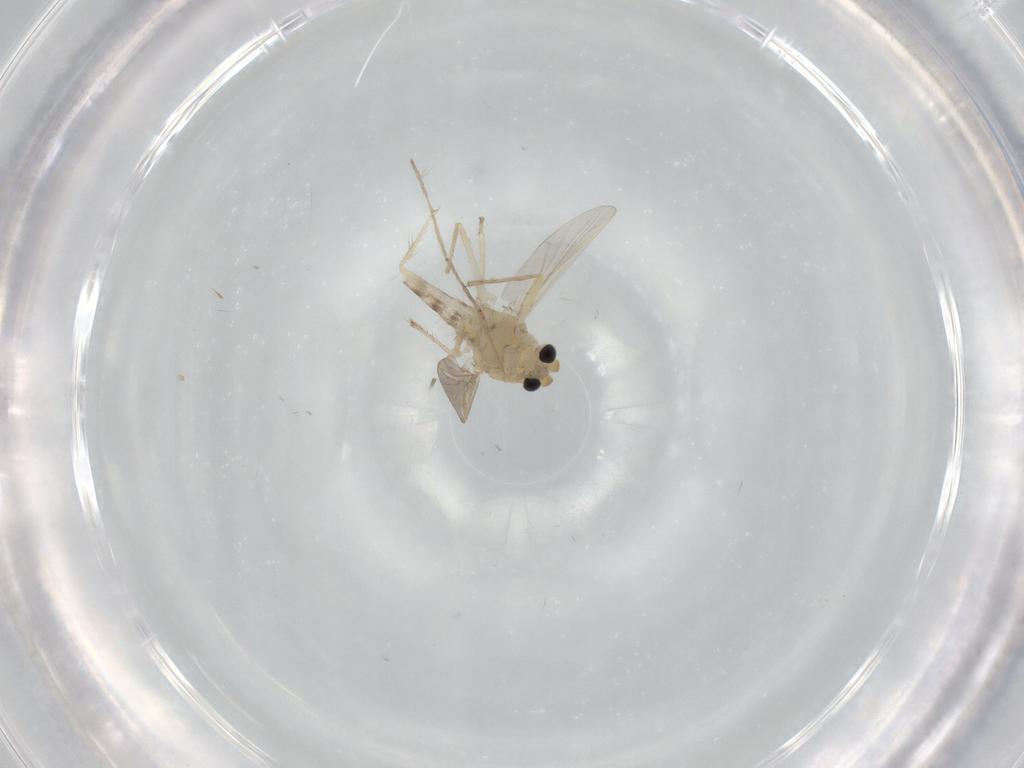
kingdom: Animalia
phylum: Arthropoda
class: Insecta
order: Diptera
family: Chironomidae
